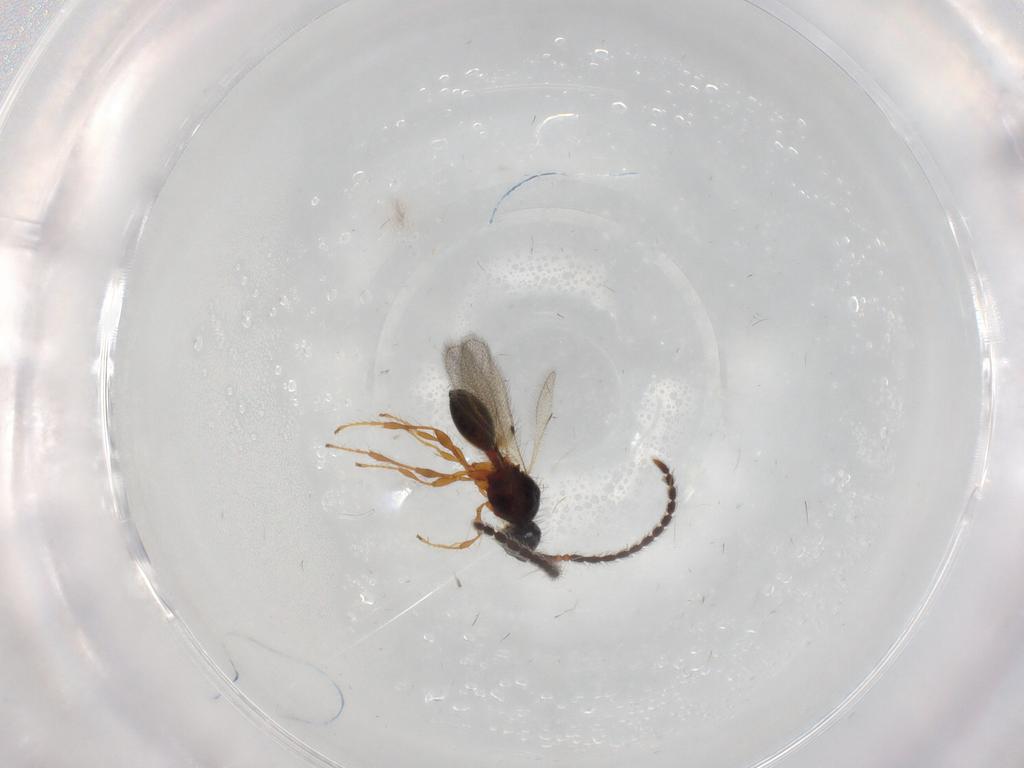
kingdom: Animalia
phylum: Arthropoda
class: Insecta
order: Hymenoptera
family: Diapriidae
